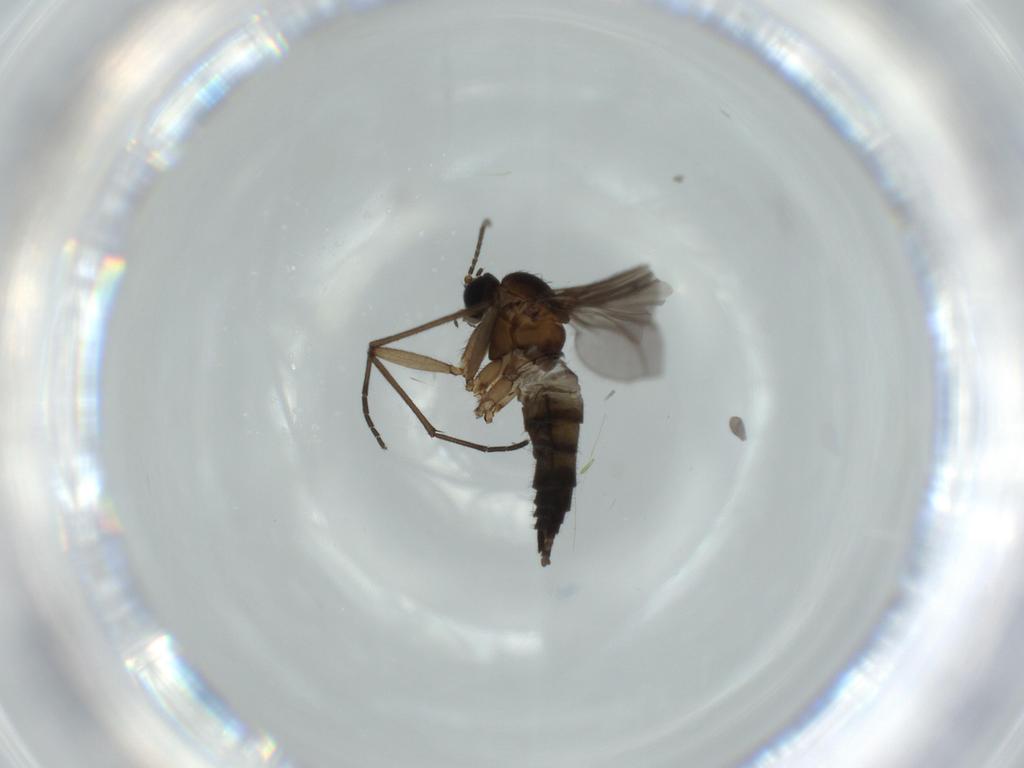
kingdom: Animalia
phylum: Arthropoda
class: Insecta
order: Diptera
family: Sciaridae
